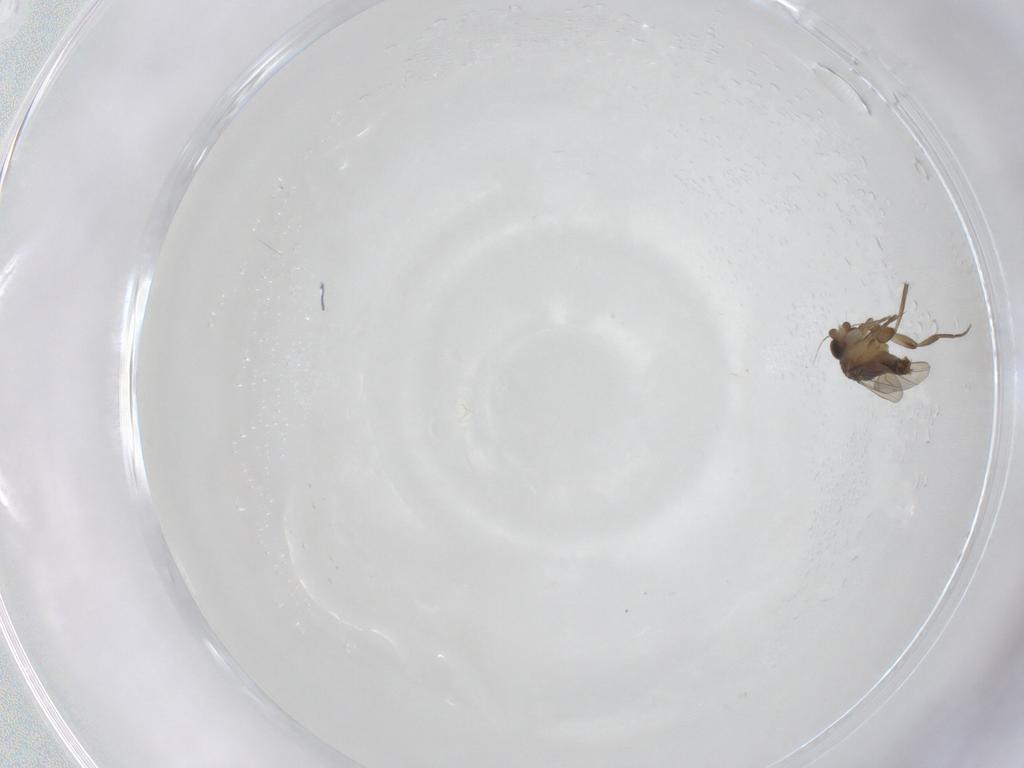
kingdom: Animalia
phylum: Arthropoda
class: Insecta
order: Diptera
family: Phoridae
